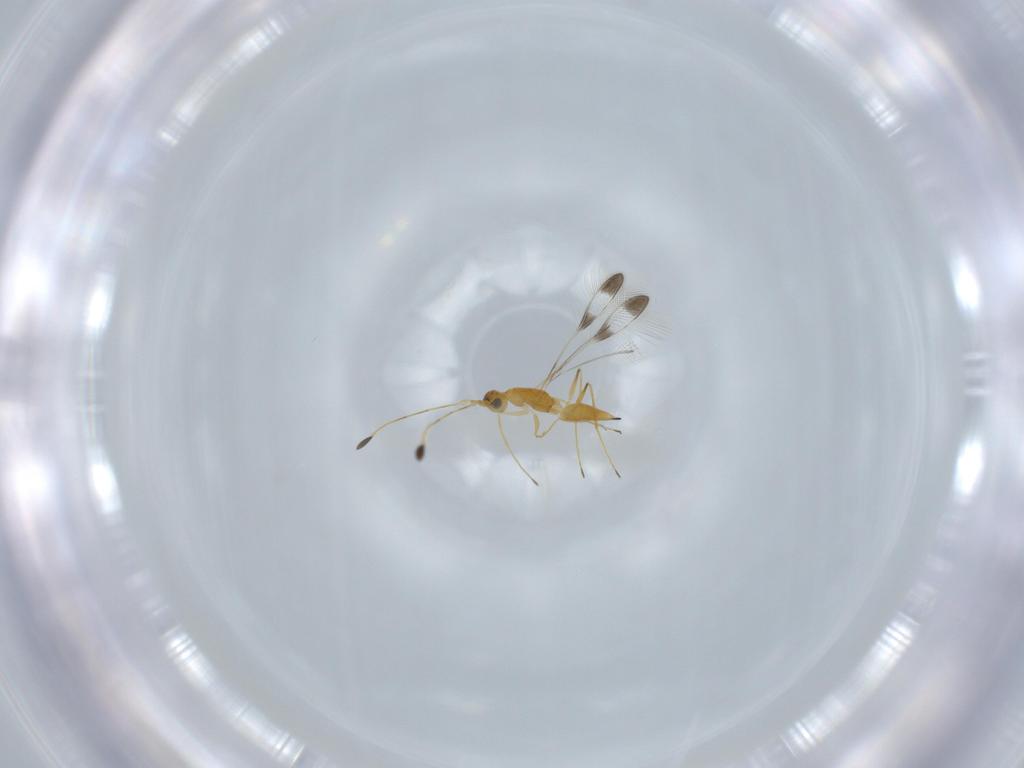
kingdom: Animalia
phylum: Arthropoda
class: Insecta
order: Hymenoptera
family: Mymaridae
